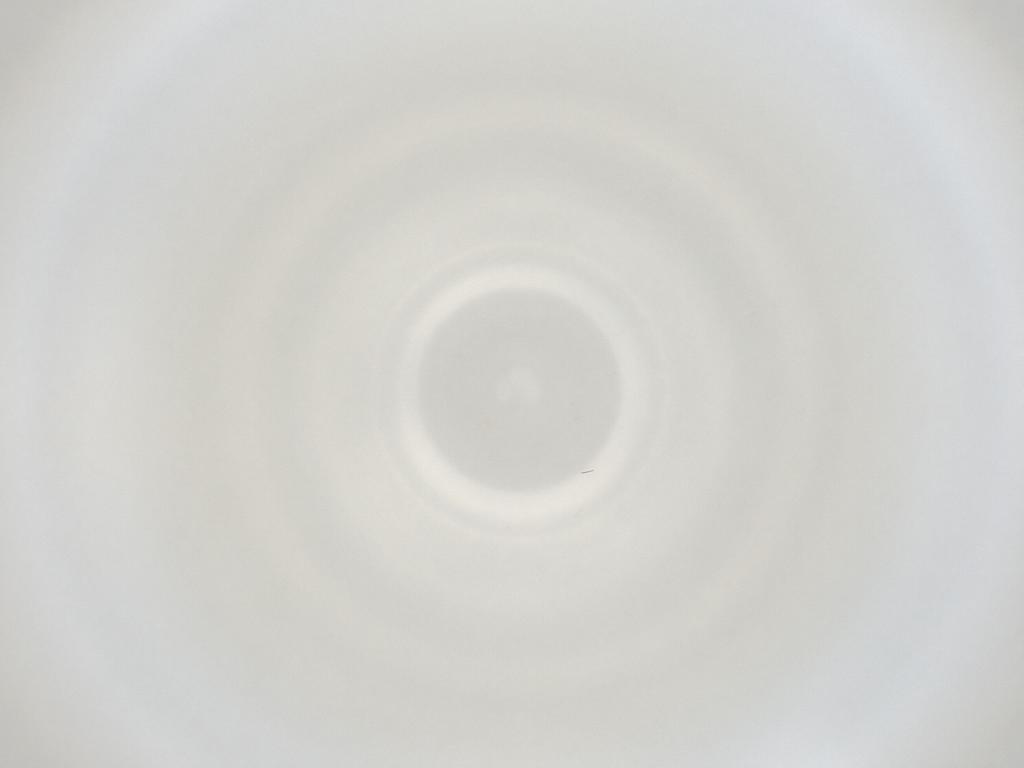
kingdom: Animalia
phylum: Arthropoda
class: Insecta
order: Diptera
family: Cecidomyiidae
